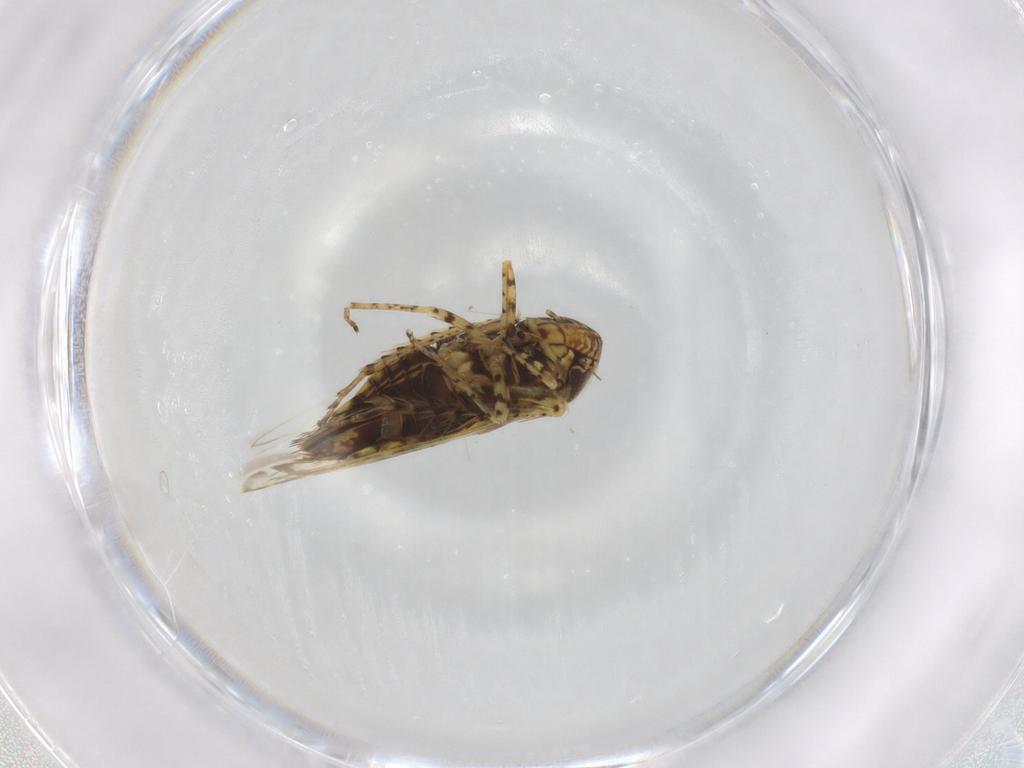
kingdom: Animalia
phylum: Arthropoda
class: Insecta
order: Hemiptera
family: Cicadellidae
